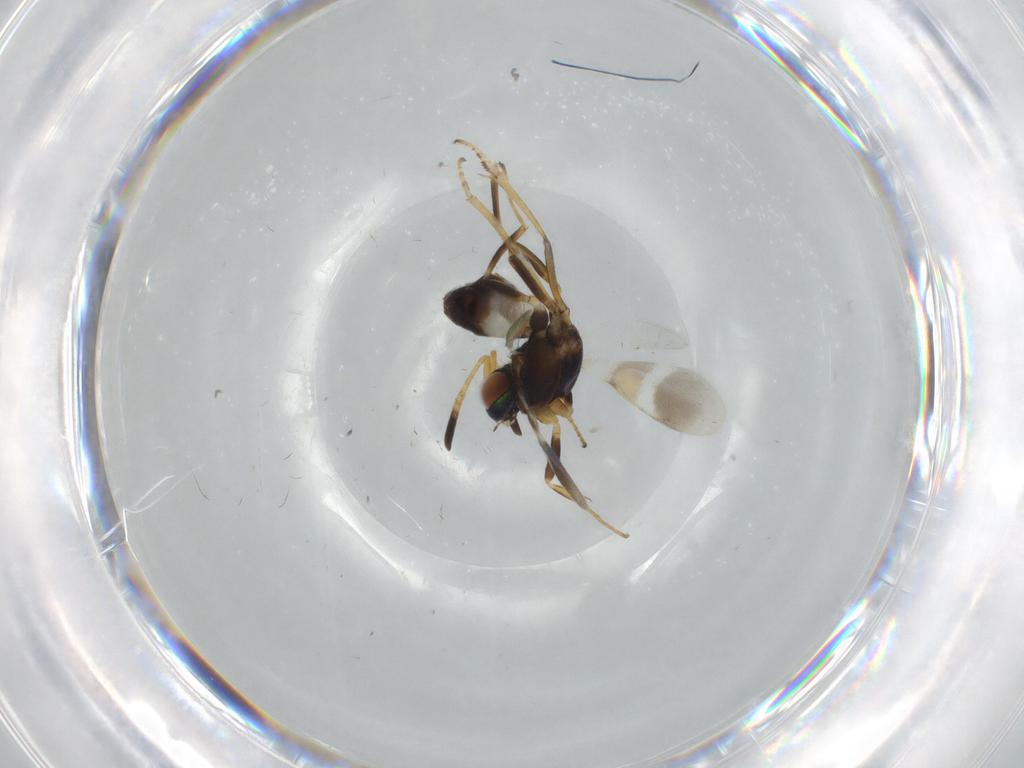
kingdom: Animalia
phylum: Arthropoda
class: Insecta
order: Hymenoptera
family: Eupelmidae
